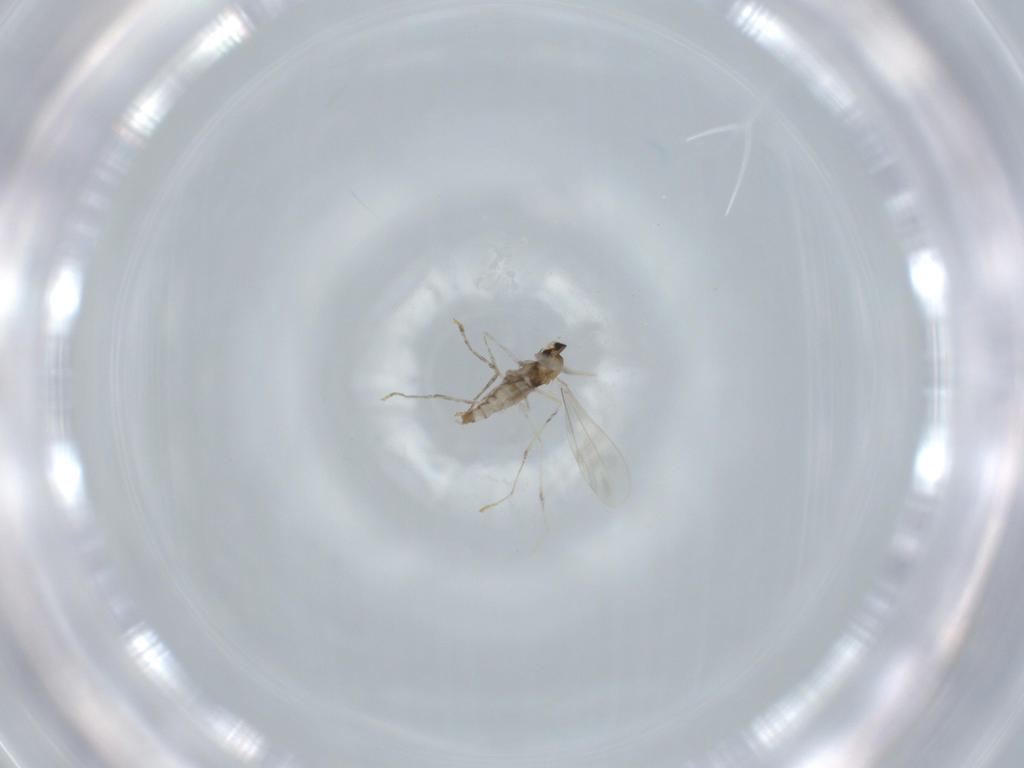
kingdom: Animalia
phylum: Arthropoda
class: Insecta
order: Diptera
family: Cecidomyiidae
